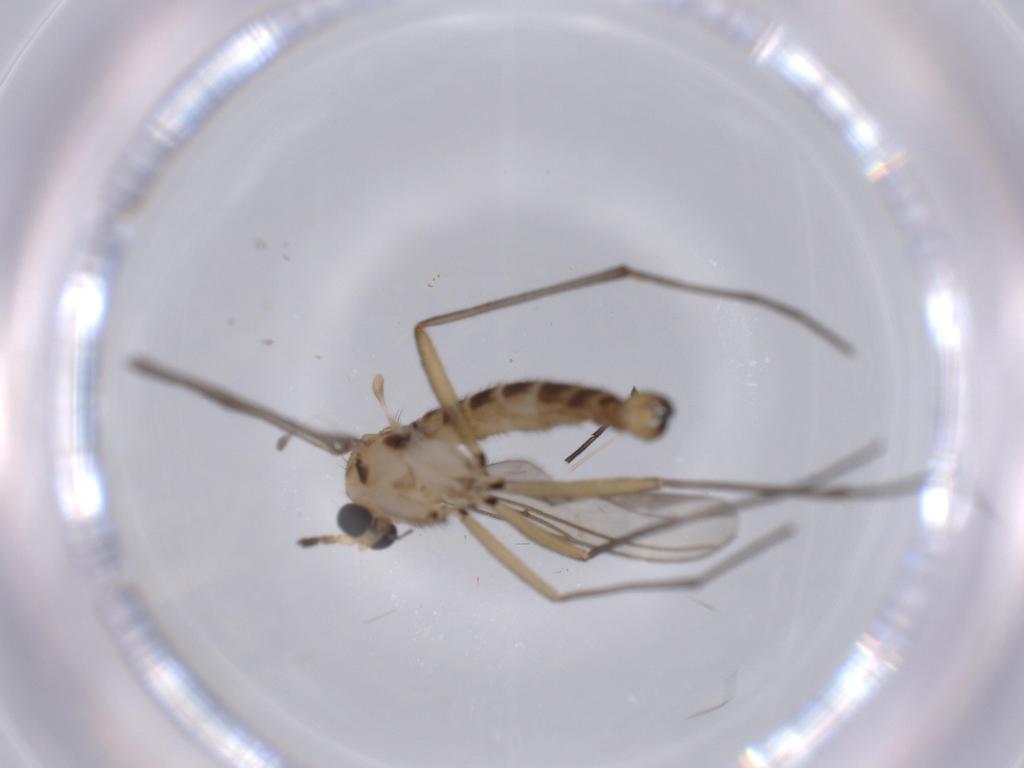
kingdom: Animalia
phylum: Arthropoda
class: Insecta
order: Diptera
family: Sciaridae
